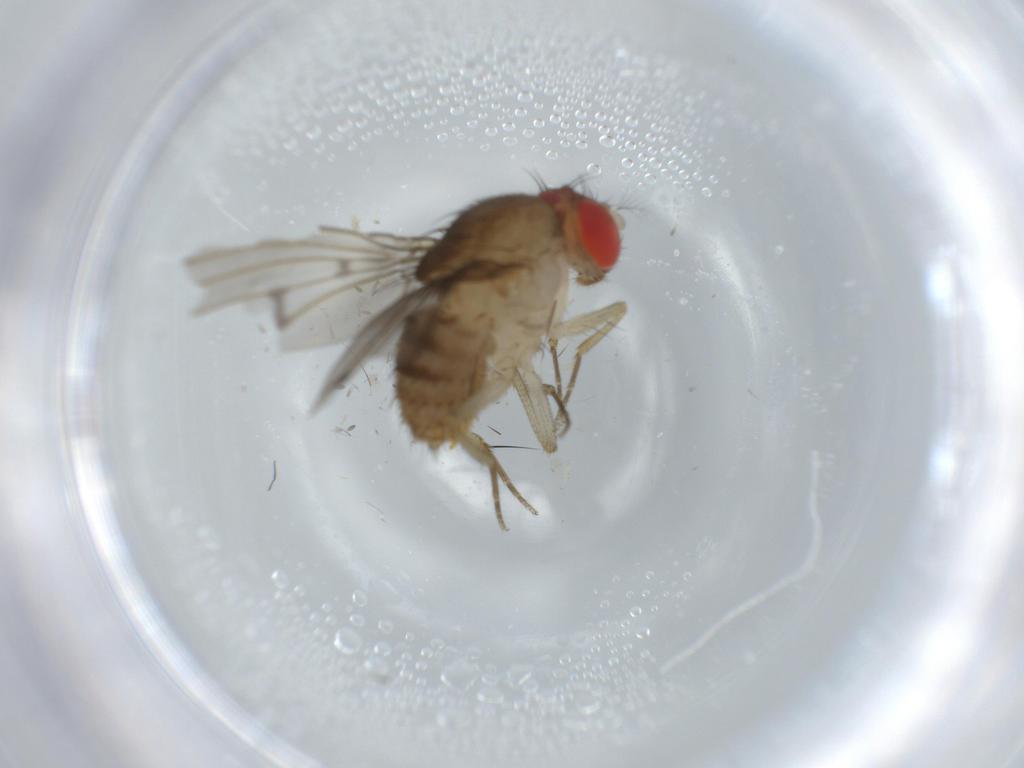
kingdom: Animalia
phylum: Arthropoda
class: Insecta
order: Diptera
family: Drosophilidae
